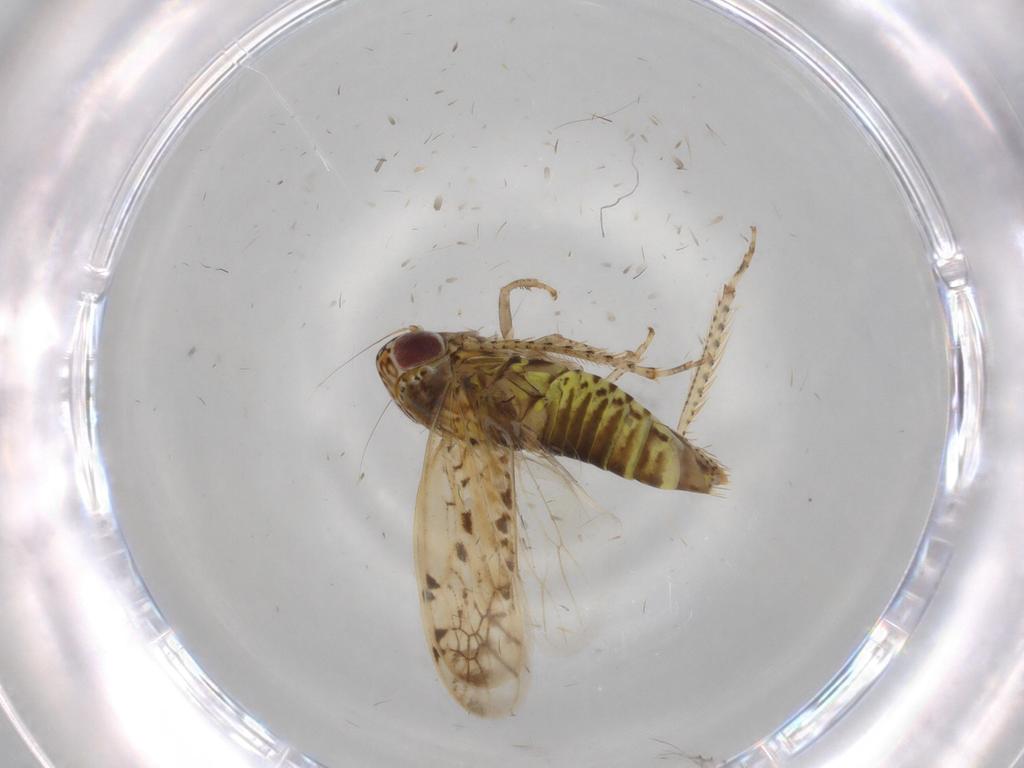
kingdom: Animalia
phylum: Arthropoda
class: Insecta
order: Hemiptera
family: Cicadellidae
